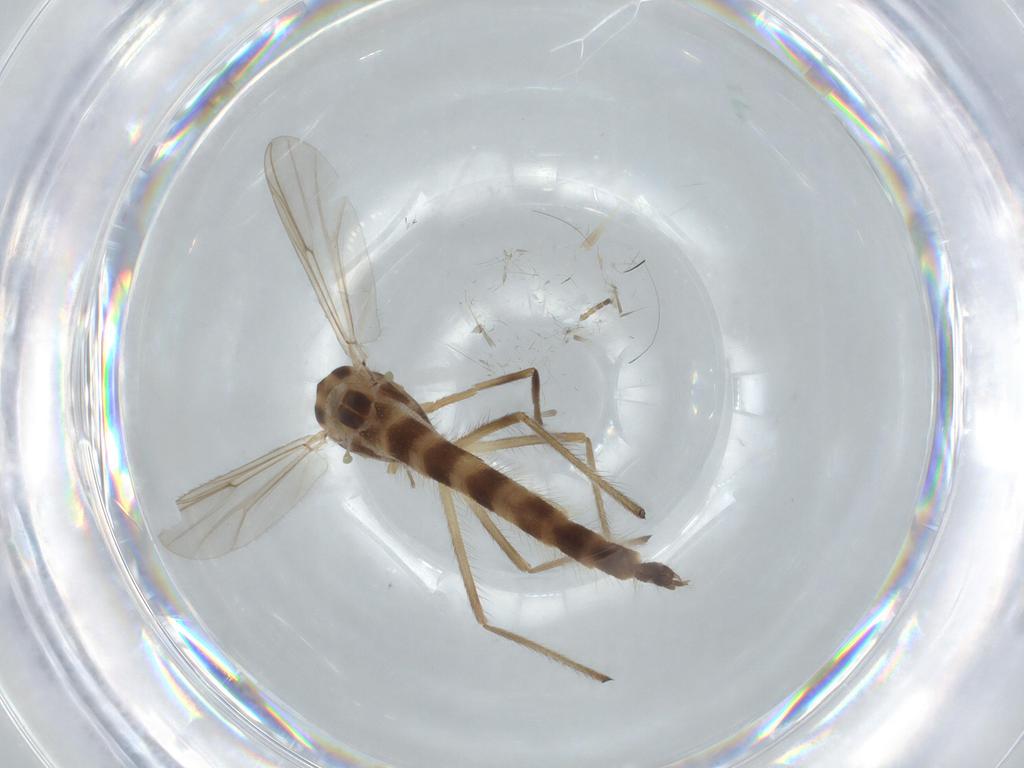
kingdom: Animalia
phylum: Arthropoda
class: Insecta
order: Diptera
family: Chironomidae
